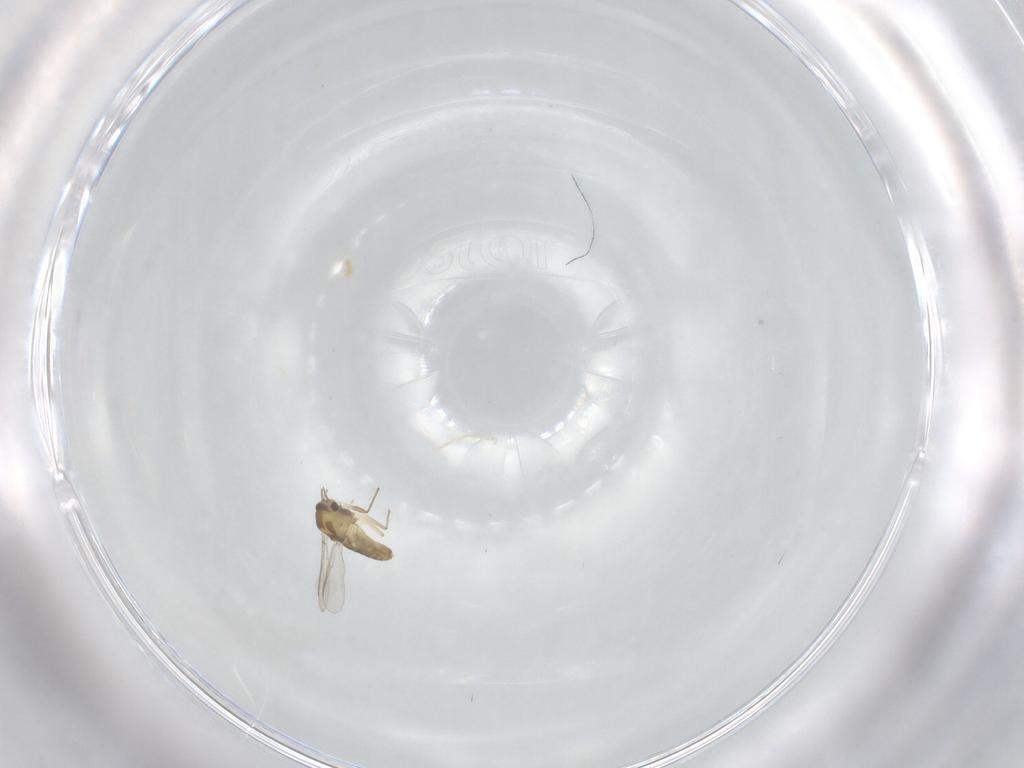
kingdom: Animalia
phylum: Arthropoda
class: Insecta
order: Diptera
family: Chironomidae
